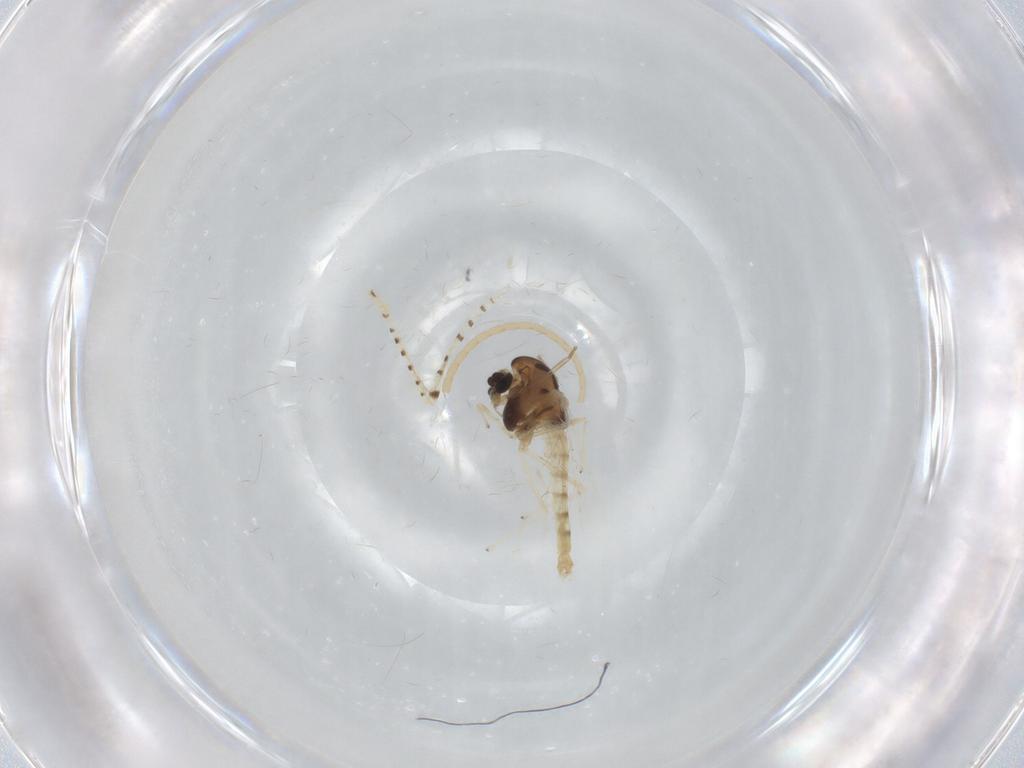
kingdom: Animalia
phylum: Arthropoda
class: Insecta
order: Diptera
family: Chironomidae
